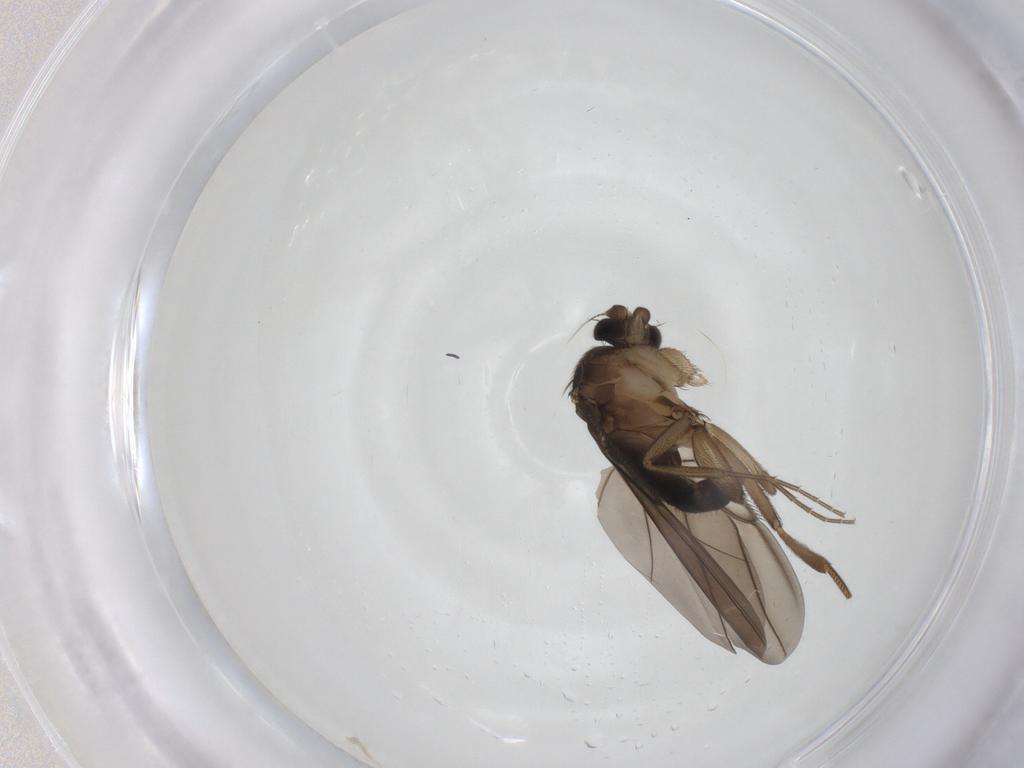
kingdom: Animalia
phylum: Arthropoda
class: Insecta
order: Diptera
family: Phoridae
